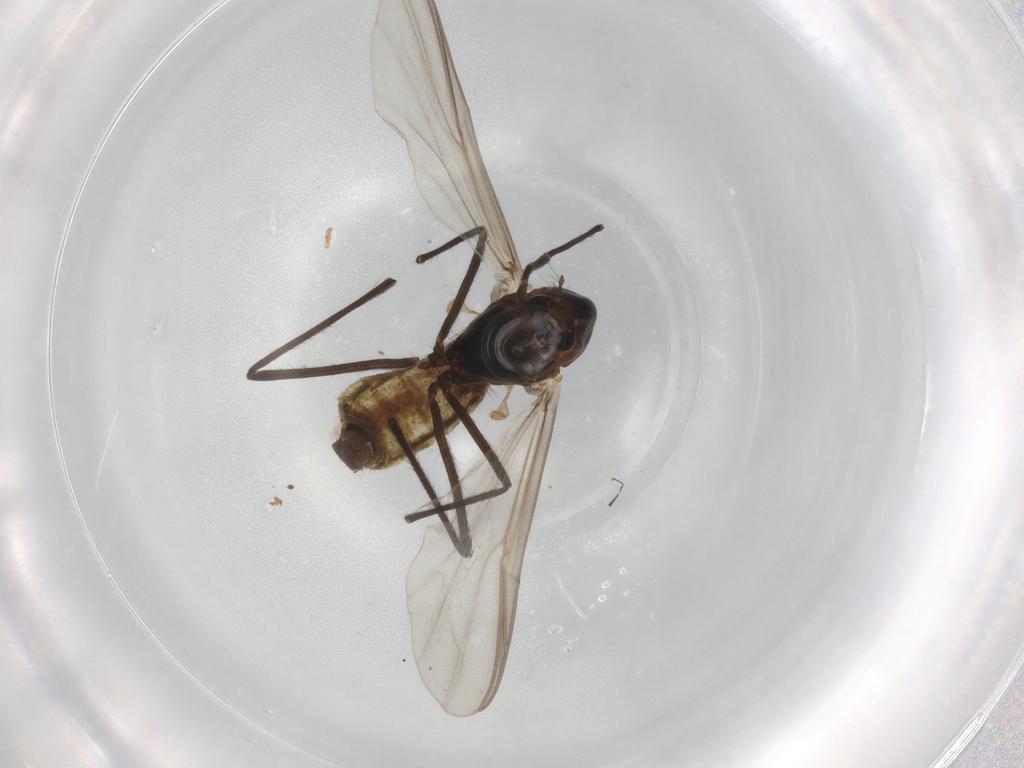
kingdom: Animalia
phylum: Arthropoda
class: Insecta
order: Diptera
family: Chironomidae
